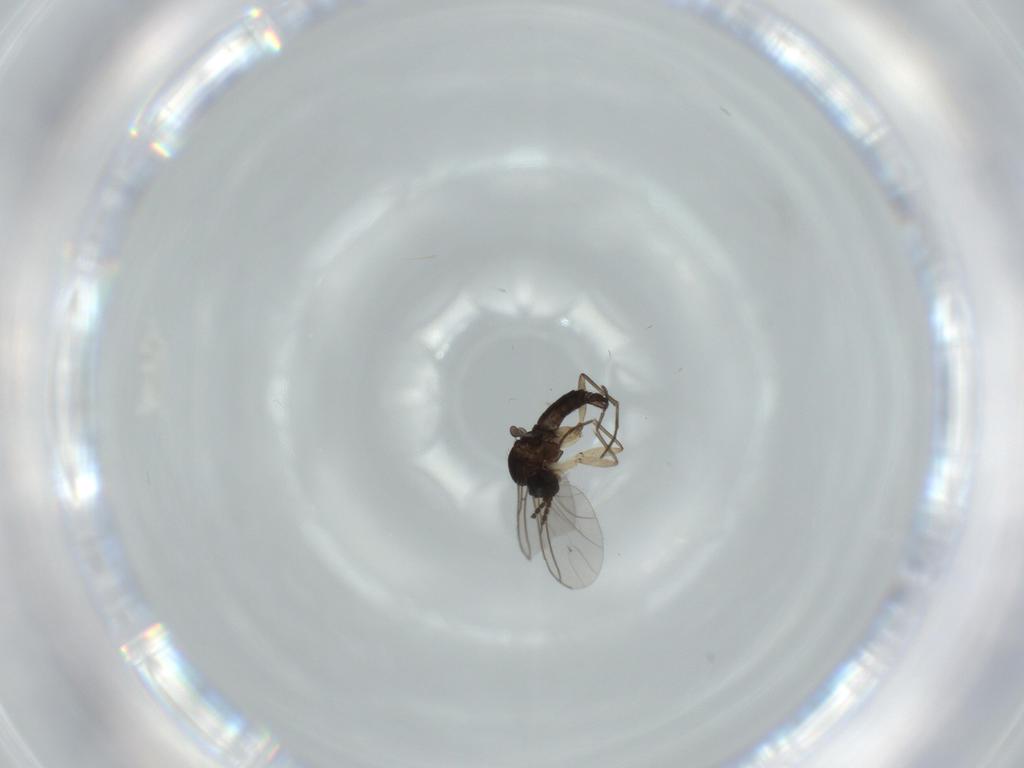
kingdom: Animalia
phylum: Arthropoda
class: Insecta
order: Diptera
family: Sciaridae
